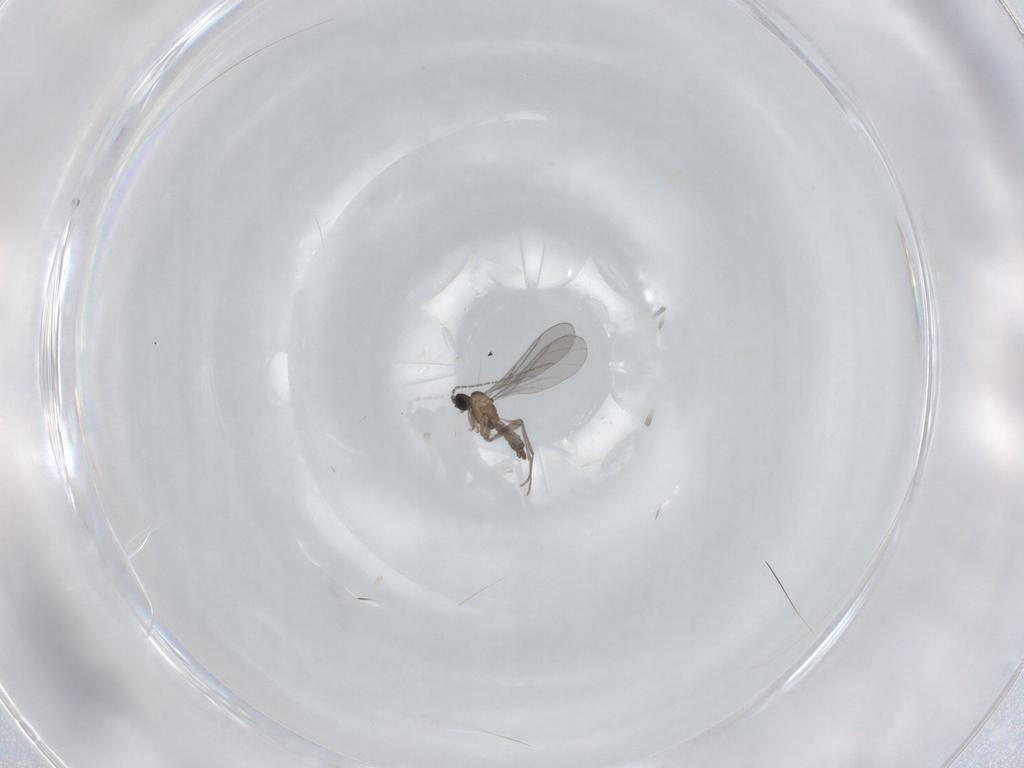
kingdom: Animalia
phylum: Arthropoda
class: Insecta
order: Diptera
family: Sciaridae
